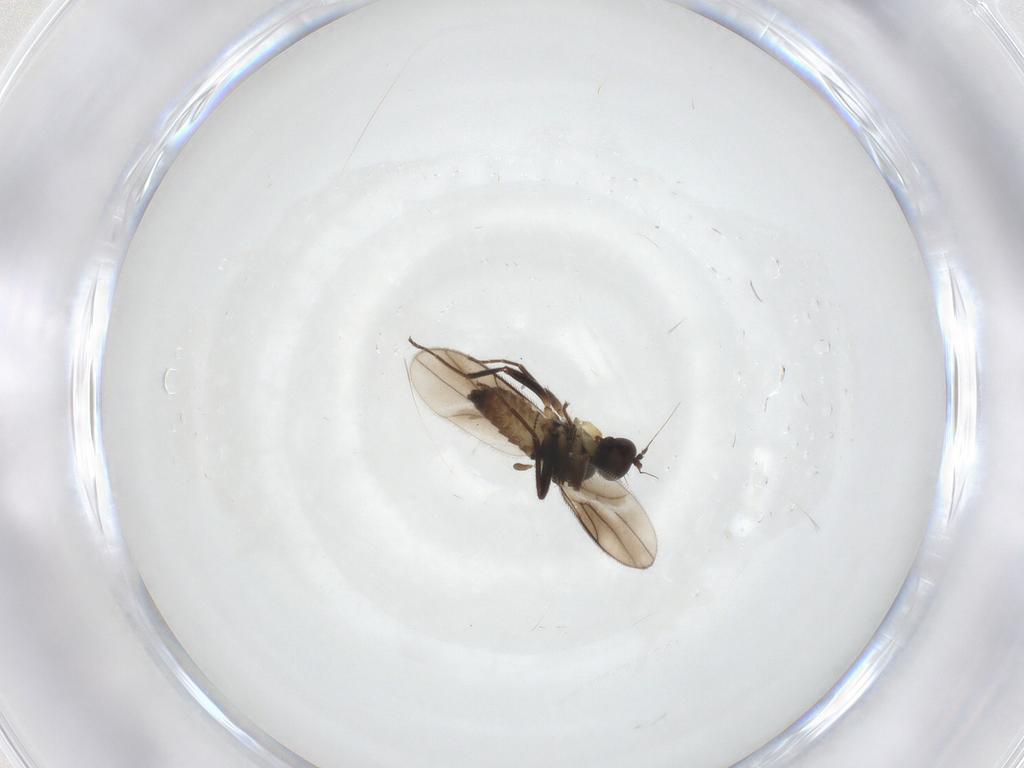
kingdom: Animalia
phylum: Arthropoda
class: Insecta
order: Diptera
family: Hybotidae
